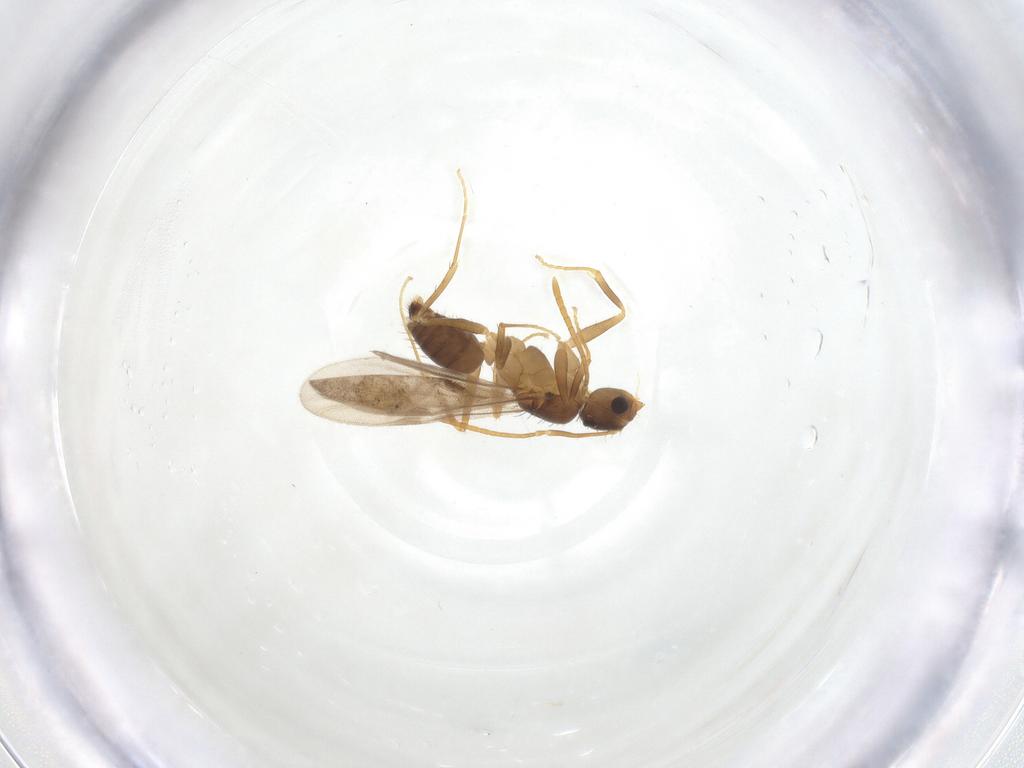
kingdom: Animalia
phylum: Arthropoda
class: Insecta
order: Hymenoptera
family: Formicidae
